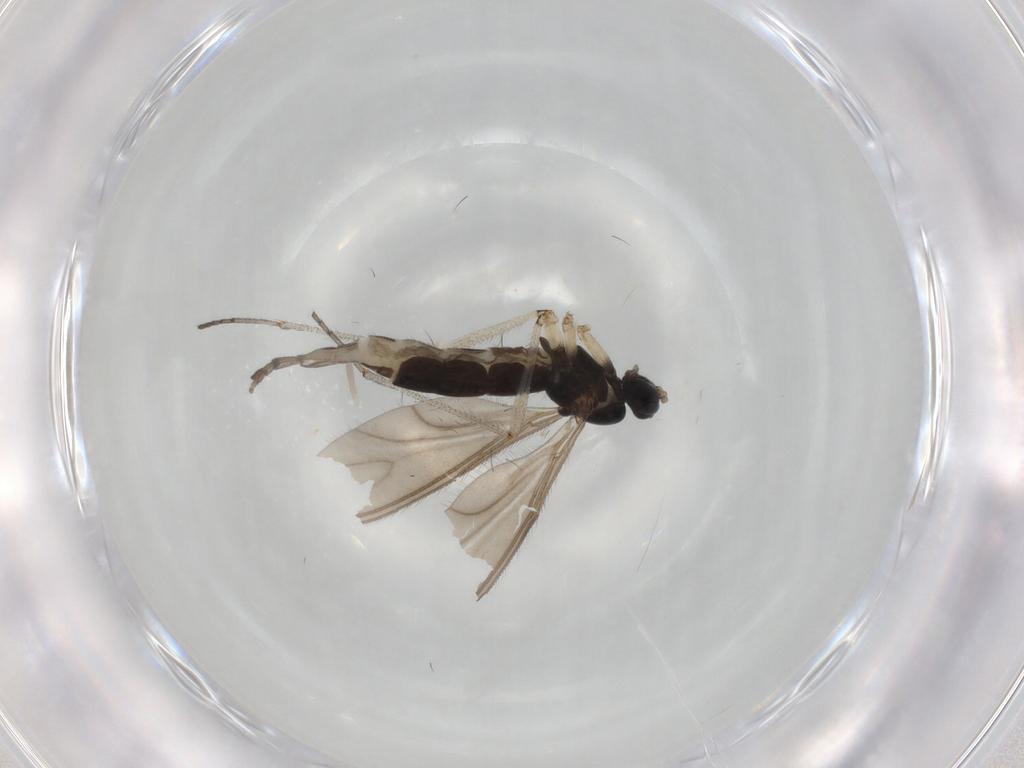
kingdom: Animalia
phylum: Arthropoda
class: Insecta
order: Diptera
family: Sciaridae
